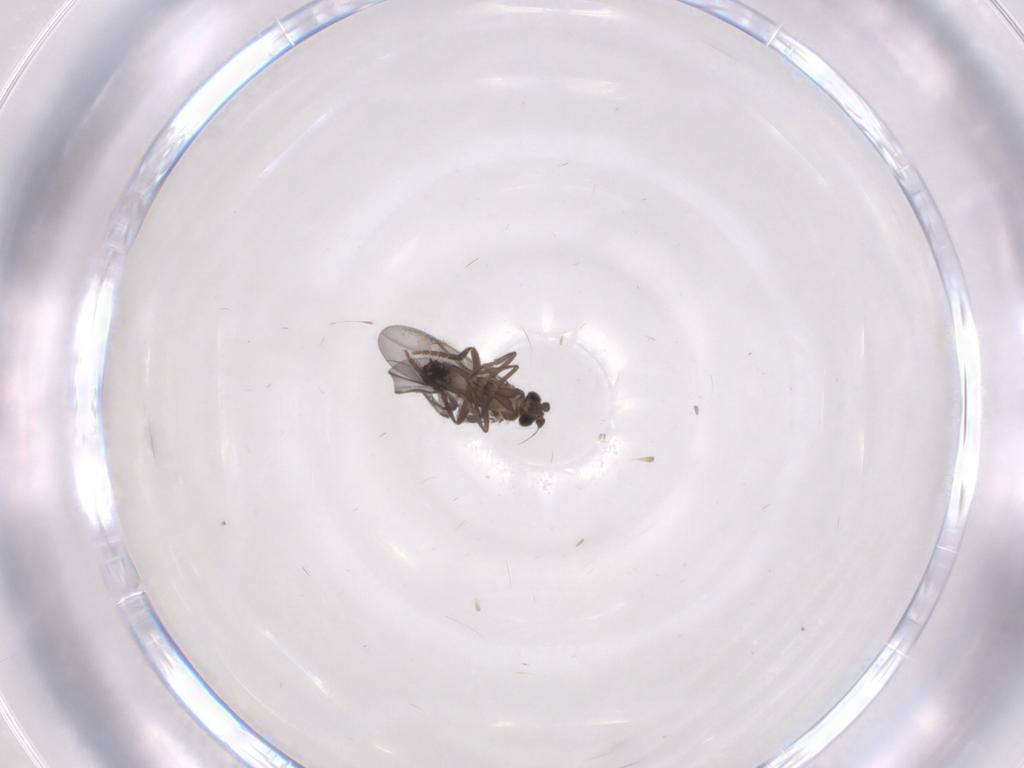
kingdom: Animalia
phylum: Arthropoda
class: Insecta
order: Diptera
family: Phoridae
